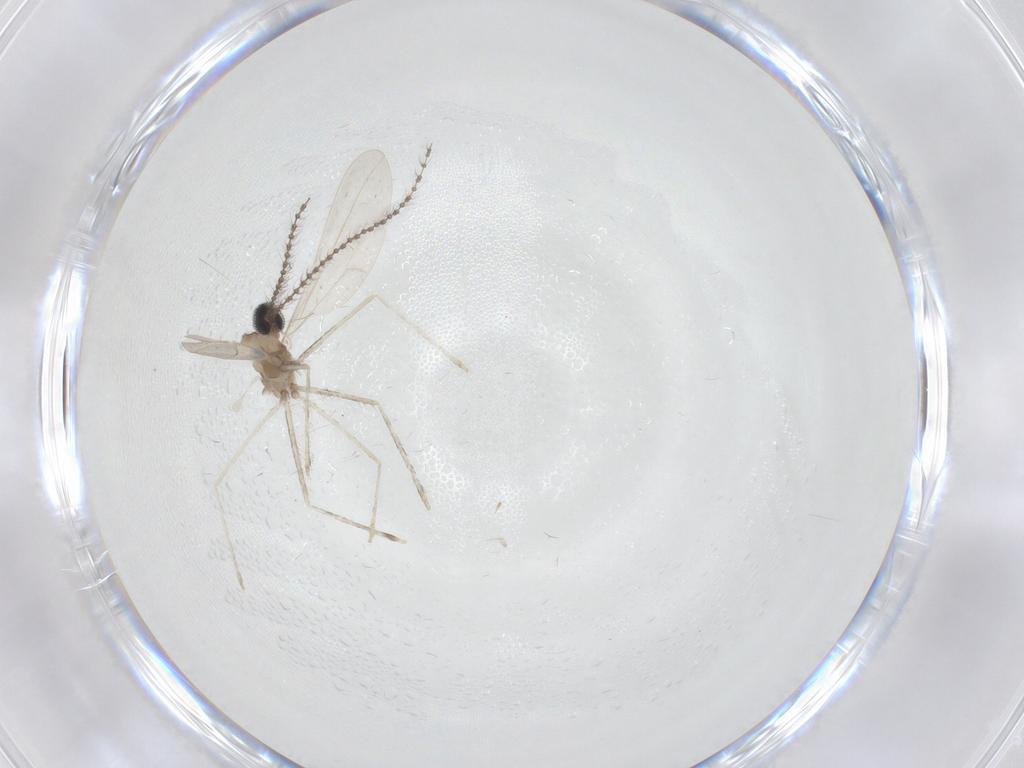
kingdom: Animalia
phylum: Arthropoda
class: Insecta
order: Diptera
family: Cecidomyiidae
